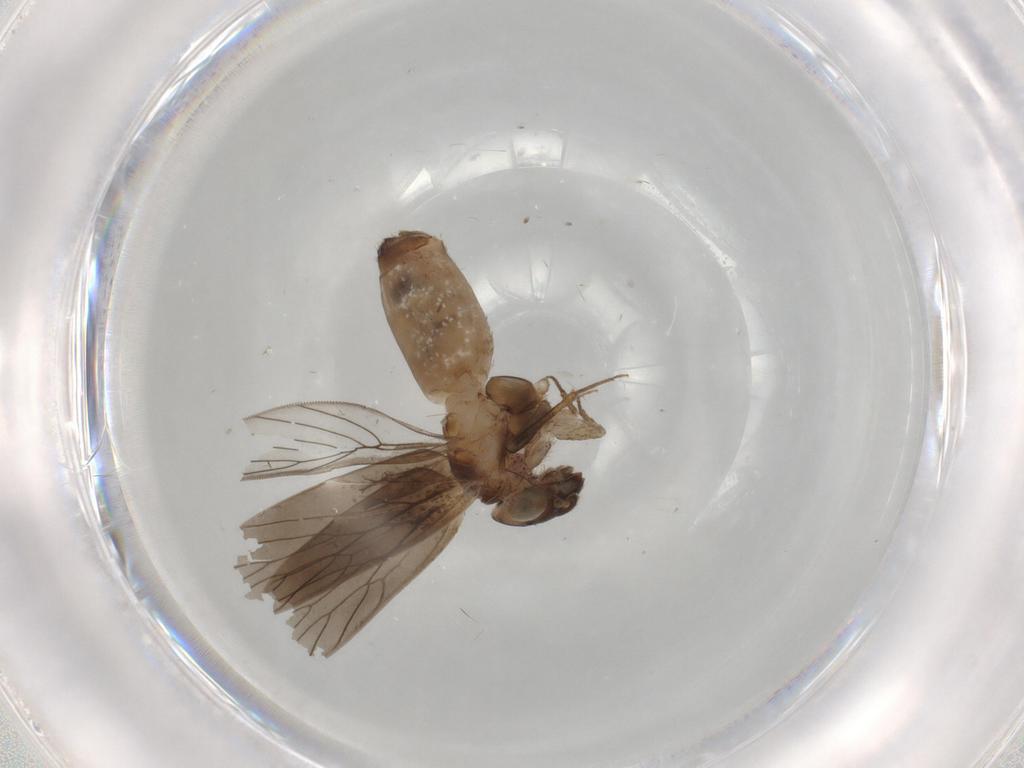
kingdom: Animalia
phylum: Arthropoda
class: Insecta
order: Psocodea
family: Lepidopsocidae
